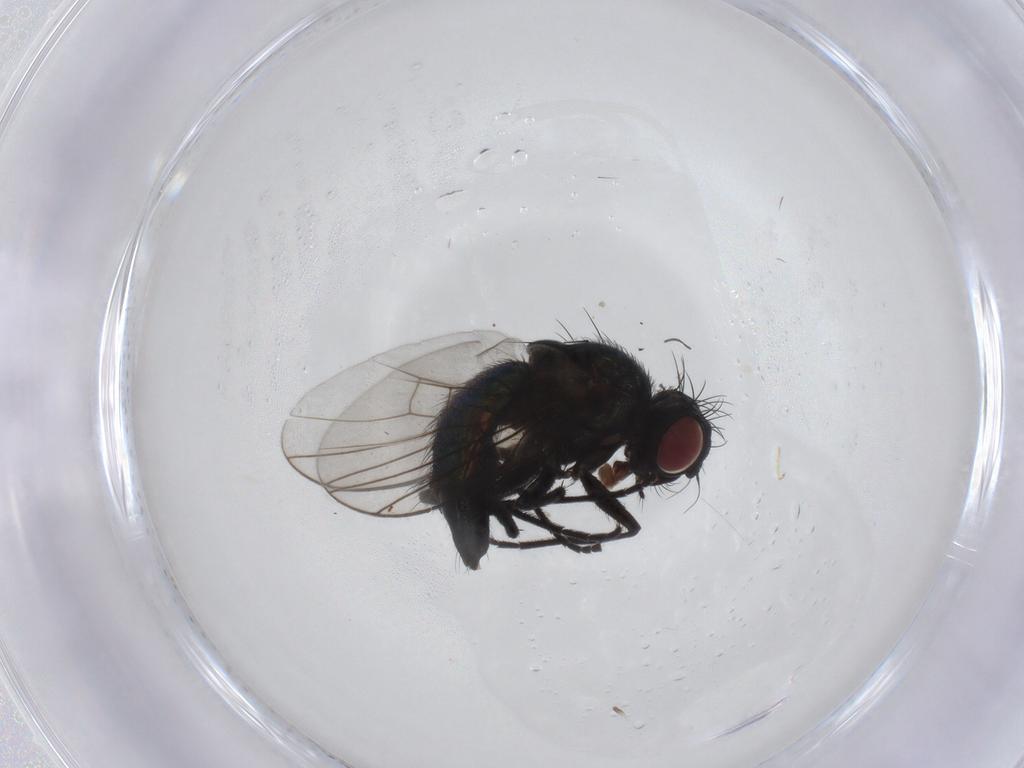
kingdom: Animalia
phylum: Arthropoda
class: Insecta
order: Diptera
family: Agromyzidae
